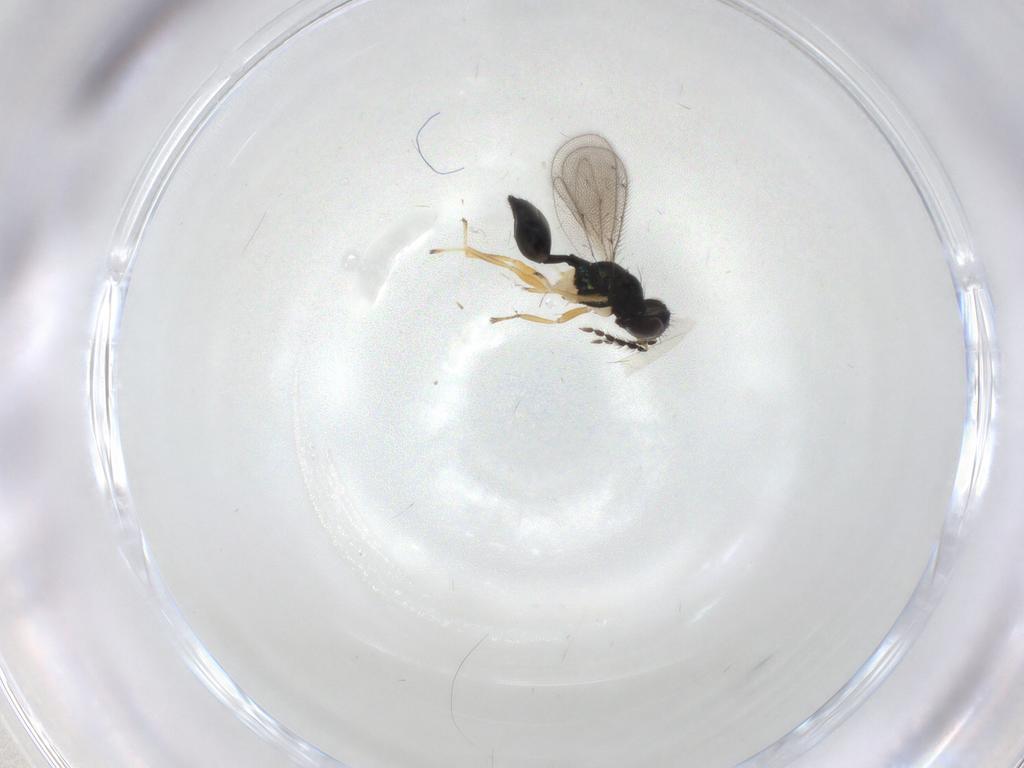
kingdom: Animalia
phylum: Arthropoda
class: Insecta
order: Hymenoptera
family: Eulophidae
